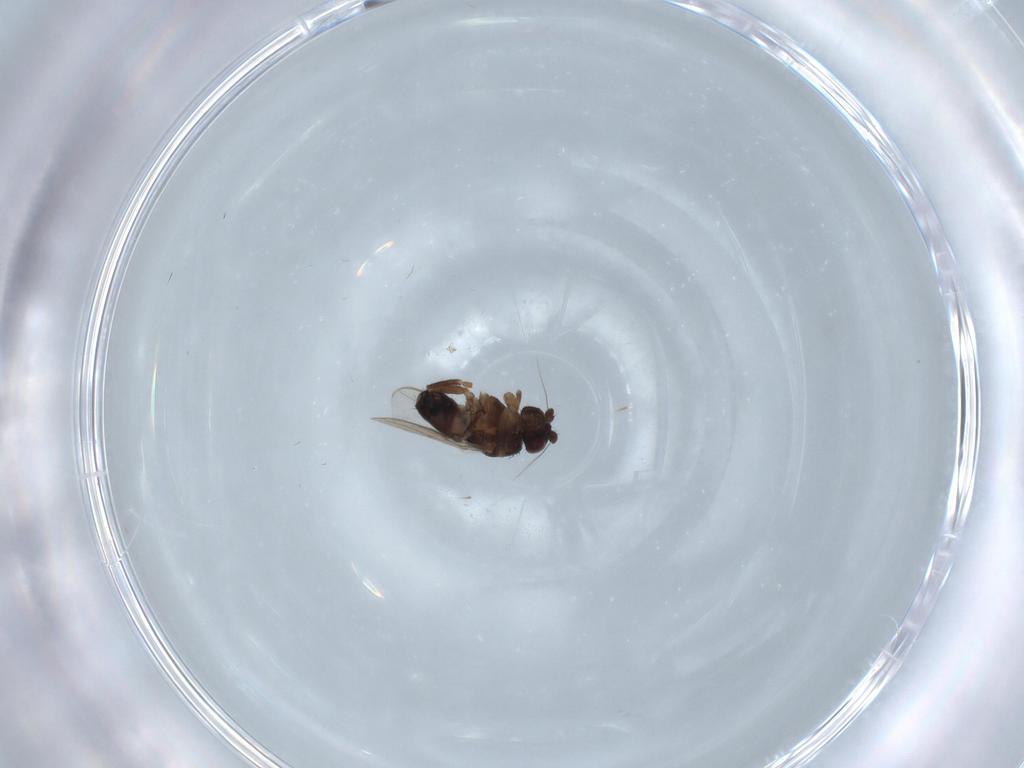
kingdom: Animalia
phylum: Arthropoda
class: Insecta
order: Diptera
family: Sphaeroceridae
